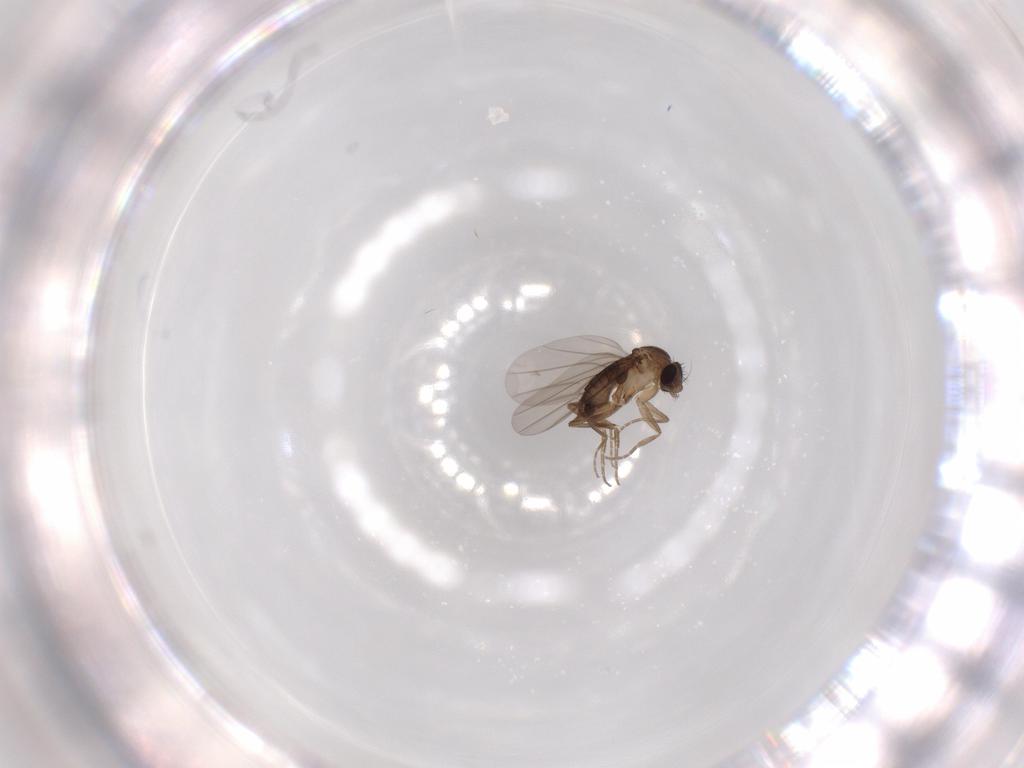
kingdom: Animalia
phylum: Arthropoda
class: Insecta
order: Diptera
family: Phoridae
